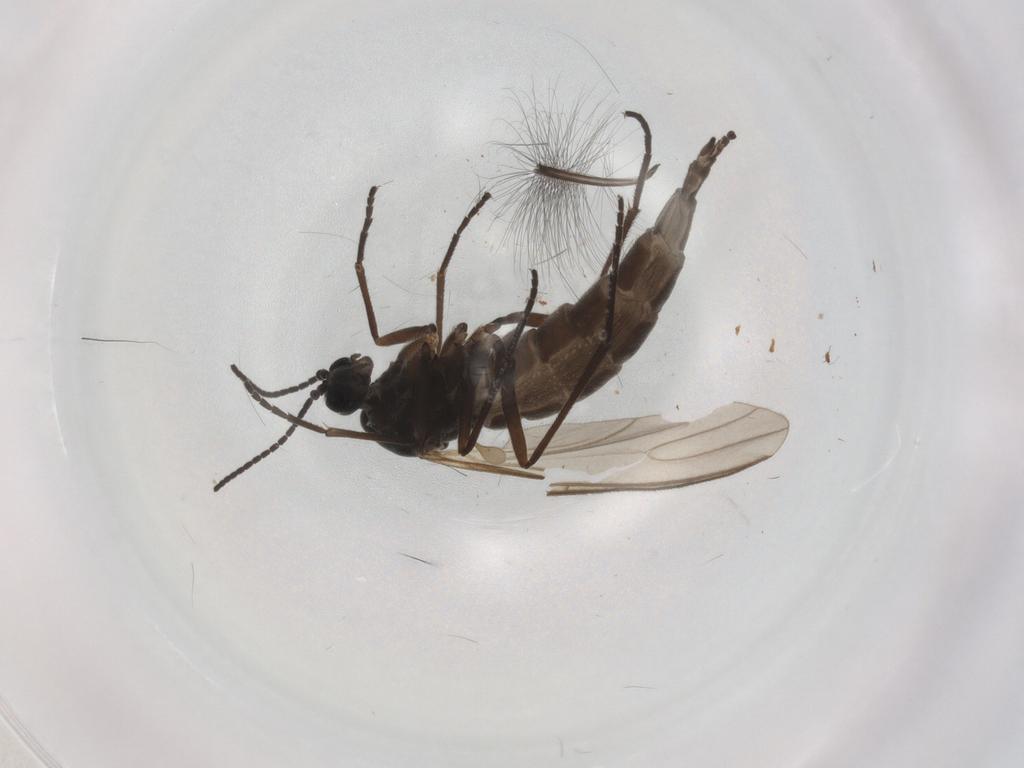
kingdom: Animalia
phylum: Arthropoda
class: Insecta
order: Diptera
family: Sciaridae
